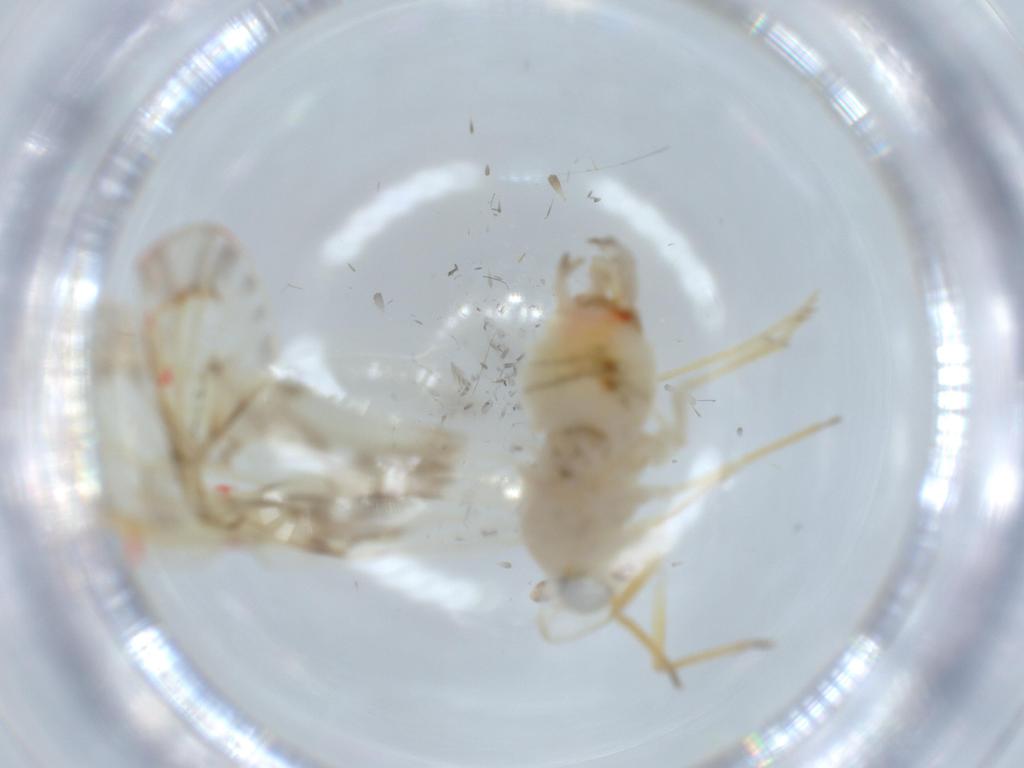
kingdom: Animalia
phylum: Arthropoda
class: Insecta
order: Hemiptera
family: Derbidae
